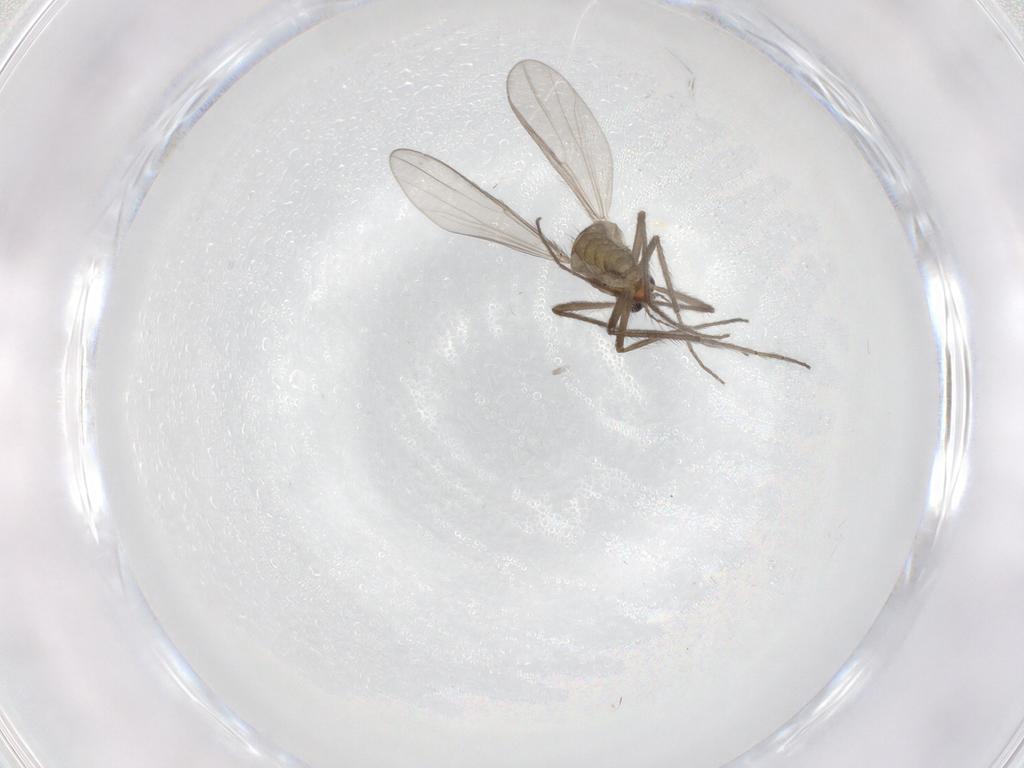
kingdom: Animalia
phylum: Arthropoda
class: Insecta
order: Diptera
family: Chironomidae
